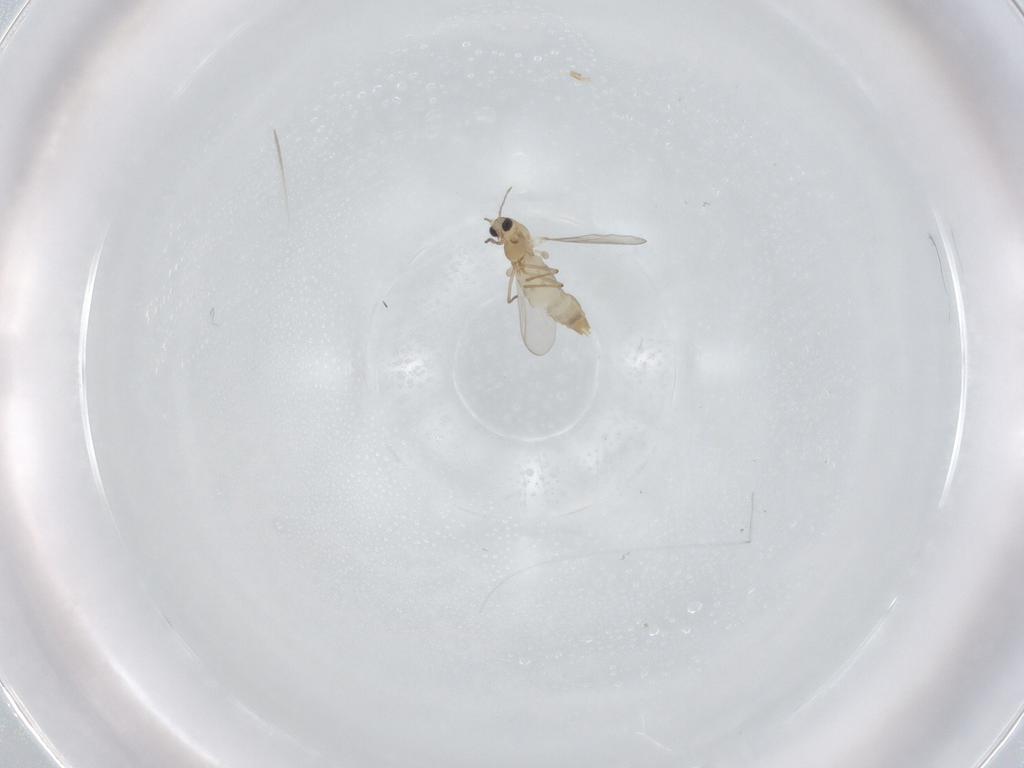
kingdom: Animalia
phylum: Arthropoda
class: Insecta
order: Diptera
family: Chironomidae
